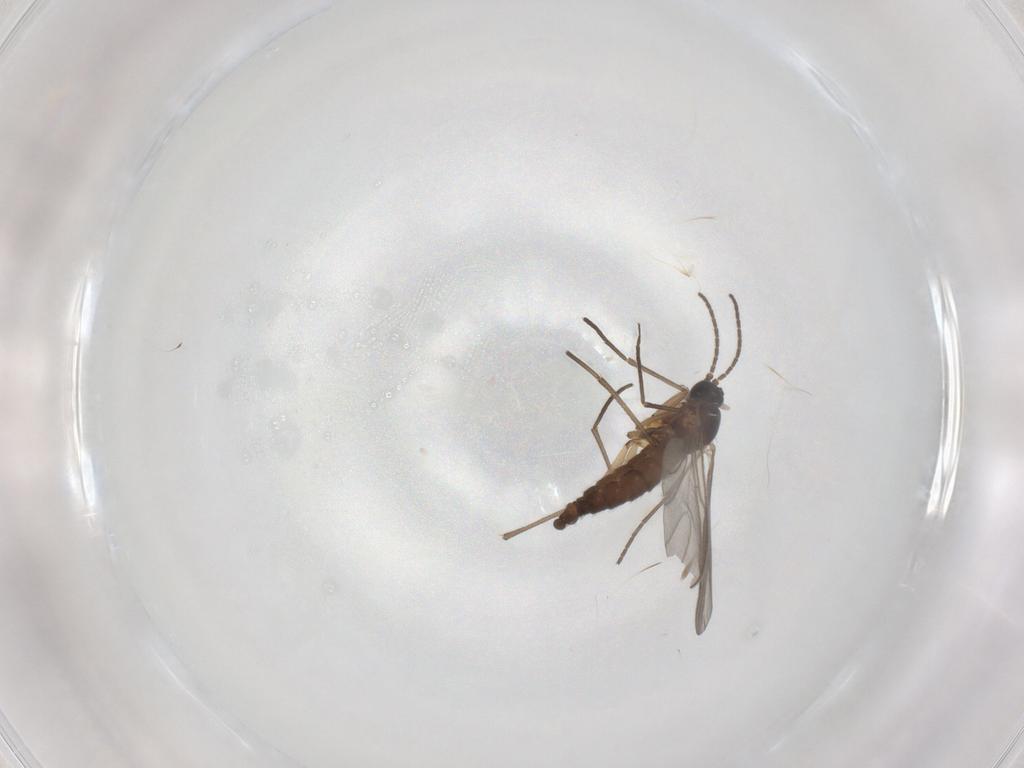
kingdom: Animalia
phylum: Arthropoda
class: Insecta
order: Diptera
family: Sciaridae
